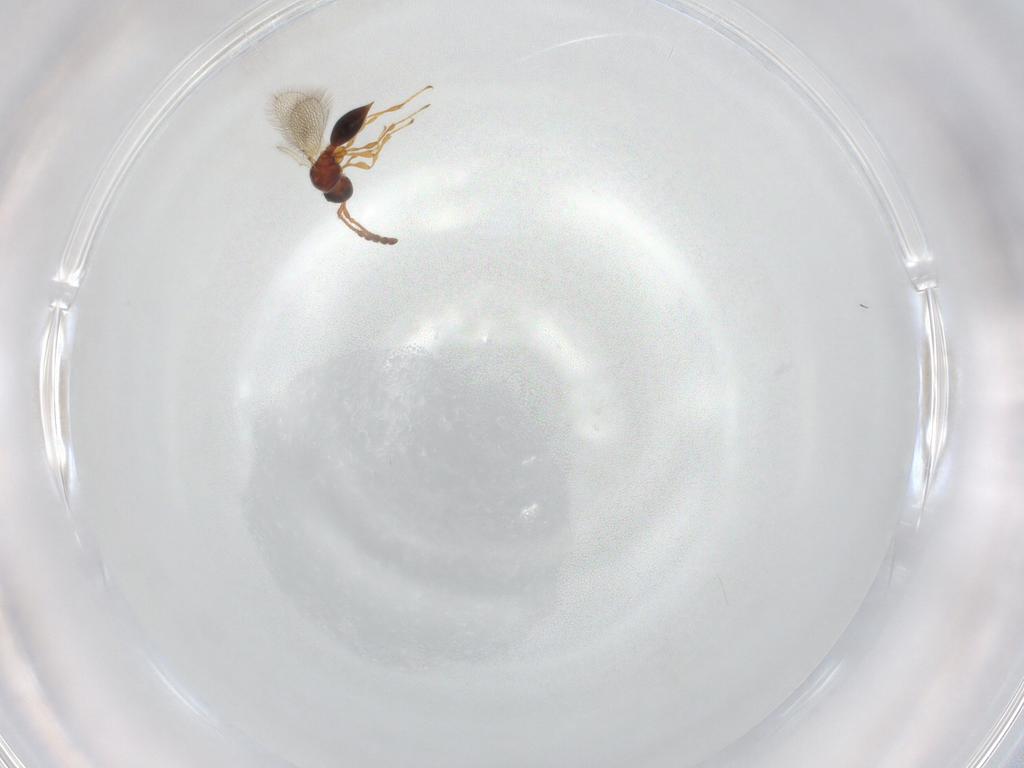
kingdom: Animalia
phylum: Arthropoda
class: Insecta
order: Hymenoptera
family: Diapriidae
